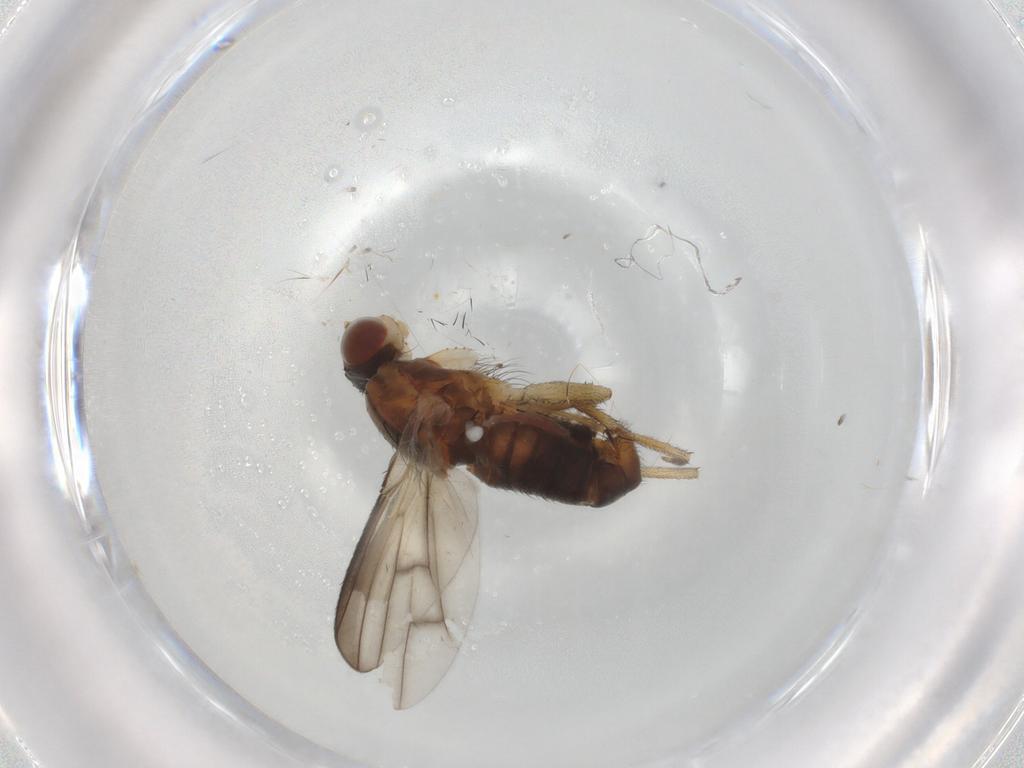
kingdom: Animalia
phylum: Arthropoda
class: Insecta
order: Diptera
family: Heleomyzidae
